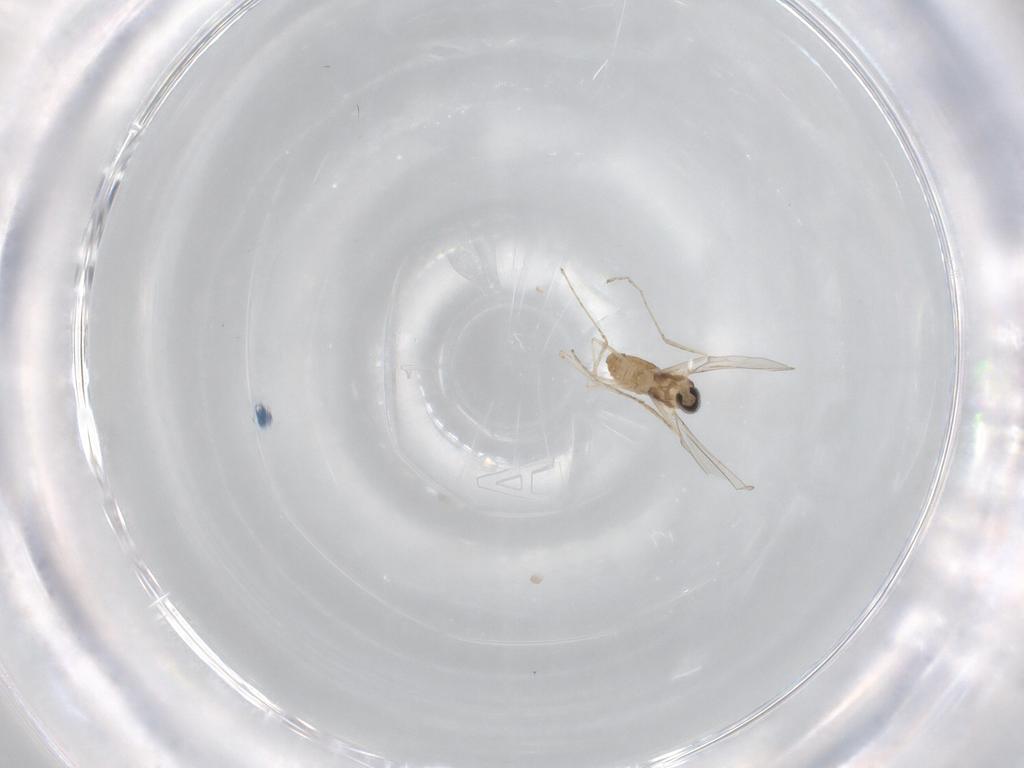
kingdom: Animalia
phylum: Arthropoda
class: Insecta
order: Diptera
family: Cecidomyiidae
